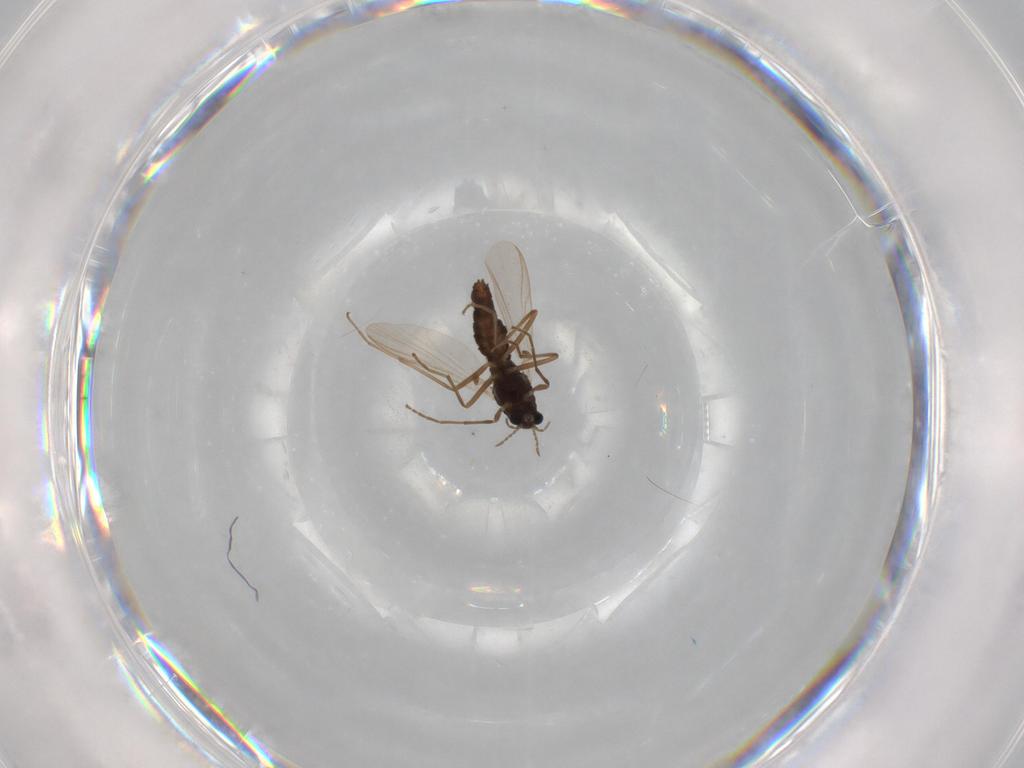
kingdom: Animalia
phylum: Arthropoda
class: Insecta
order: Diptera
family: Chironomidae
